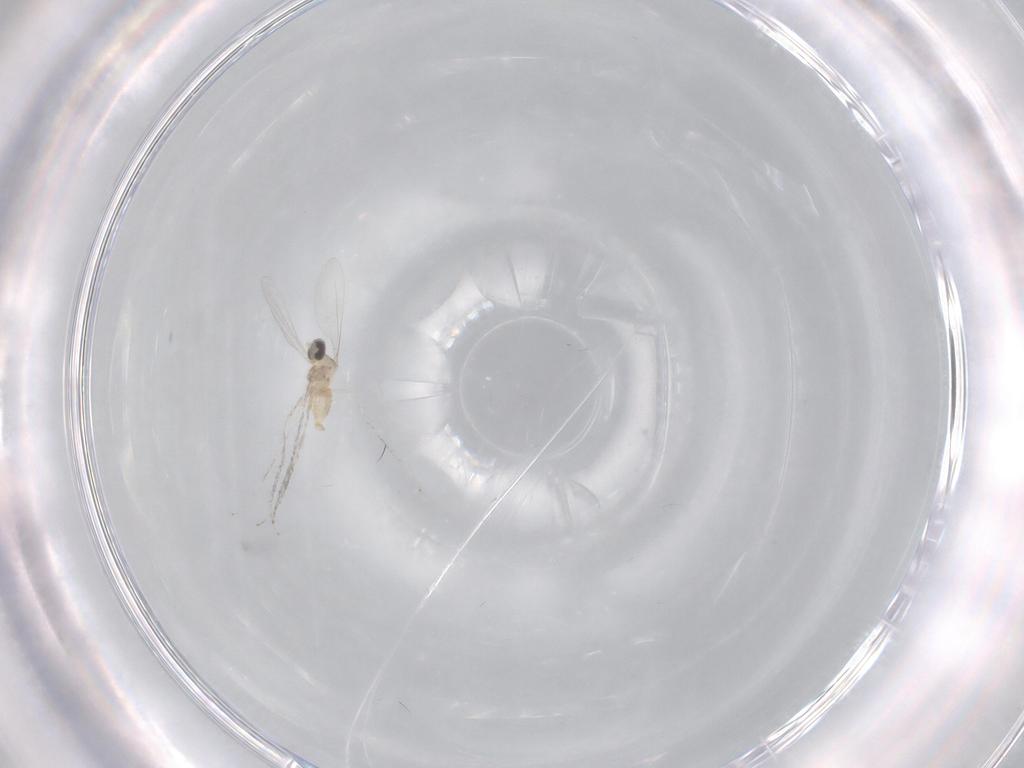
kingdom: Animalia
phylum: Arthropoda
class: Insecta
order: Diptera
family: Cecidomyiidae
